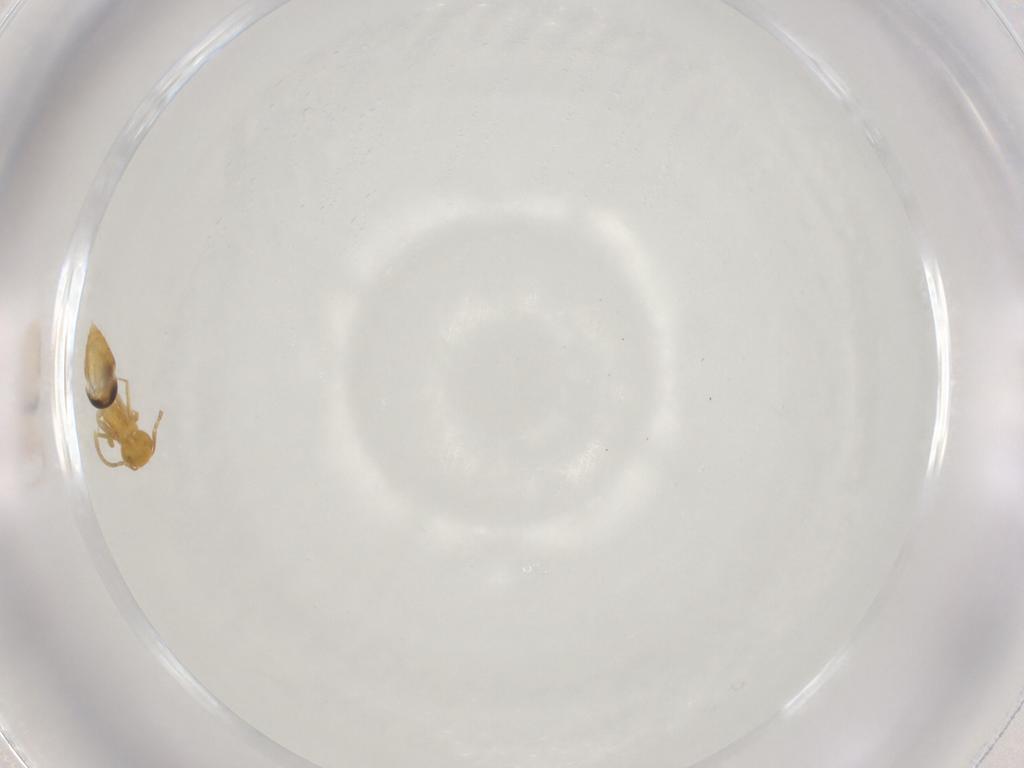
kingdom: Animalia
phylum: Arthropoda
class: Insecta
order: Hymenoptera
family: Formicidae
